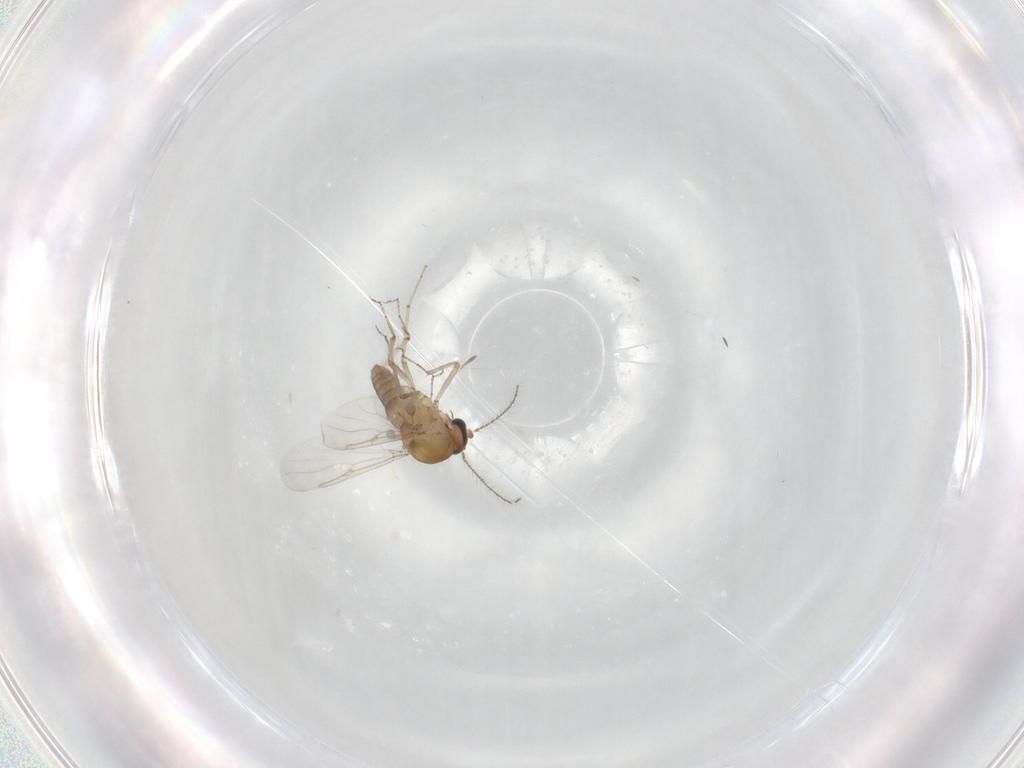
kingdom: Animalia
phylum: Arthropoda
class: Insecta
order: Diptera
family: Ceratopogonidae
